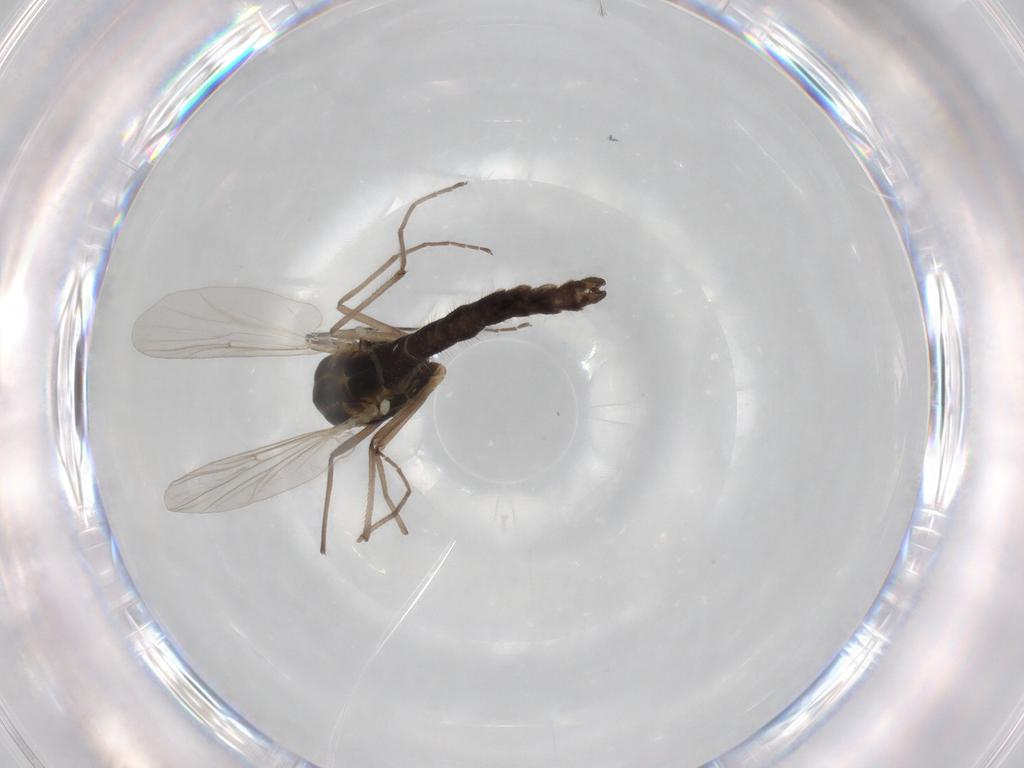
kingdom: Animalia
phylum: Arthropoda
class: Insecta
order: Diptera
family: Chironomidae
